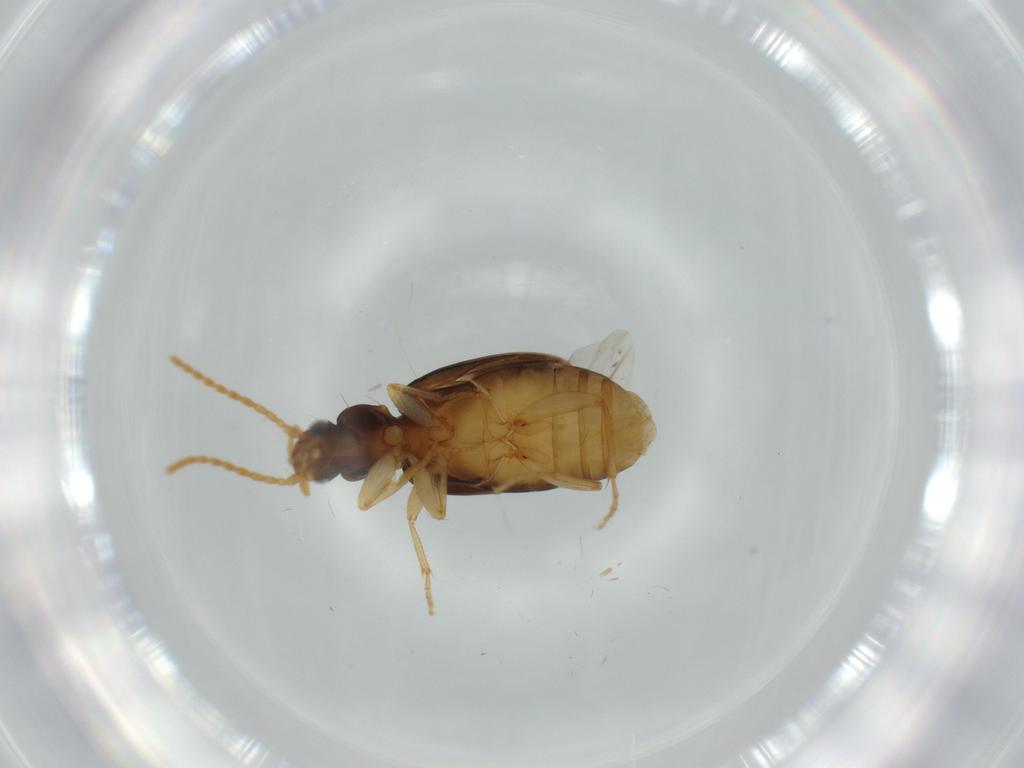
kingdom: Animalia
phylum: Arthropoda
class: Insecta
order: Coleoptera
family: Carabidae
